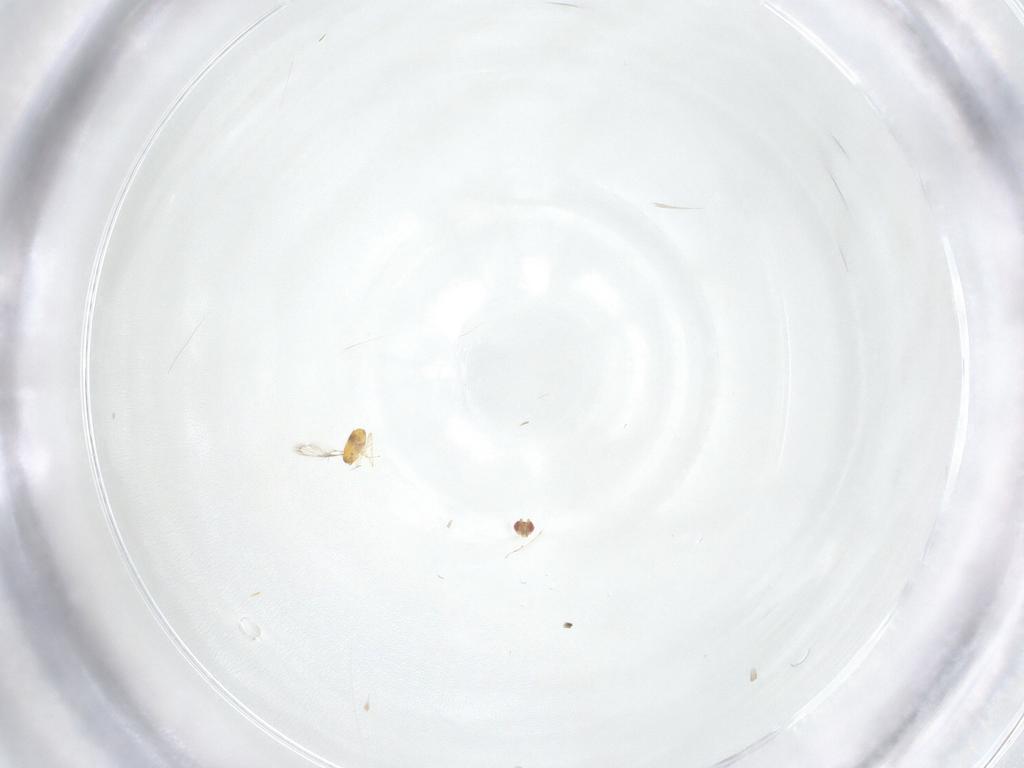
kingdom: Animalia
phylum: Arthropoda
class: Insecta
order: Hymenoptera
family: Trichogrammatidae
